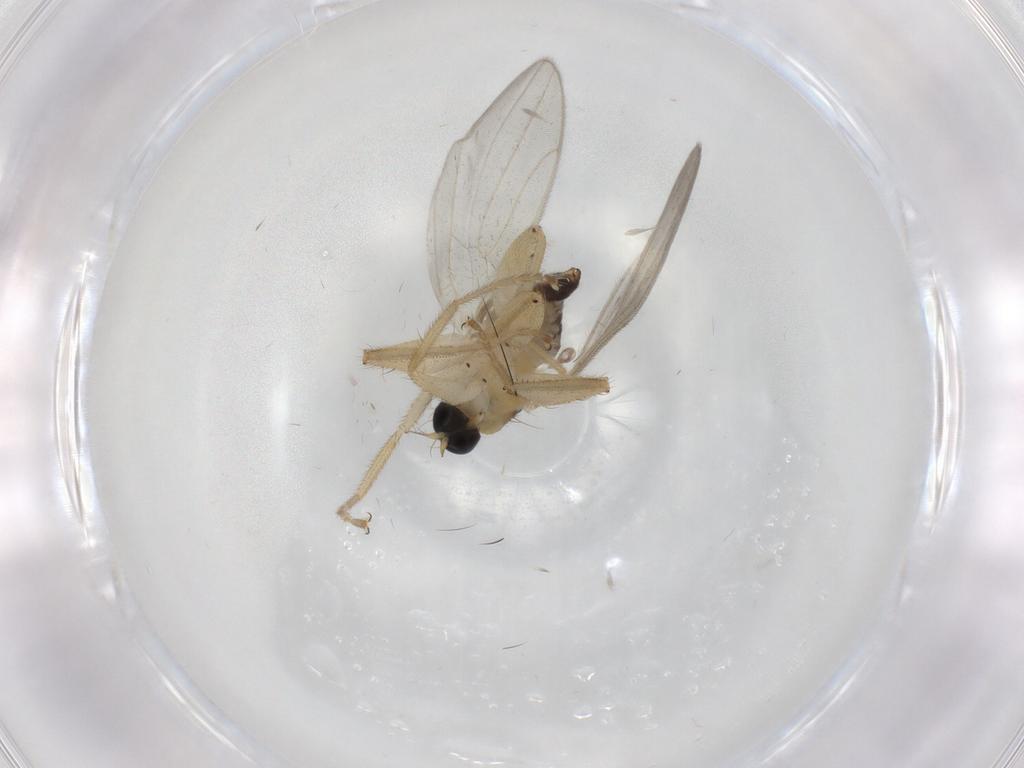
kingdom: Animalia
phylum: Arthropoda
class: Insecta
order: Diptera
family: Hybotidae
